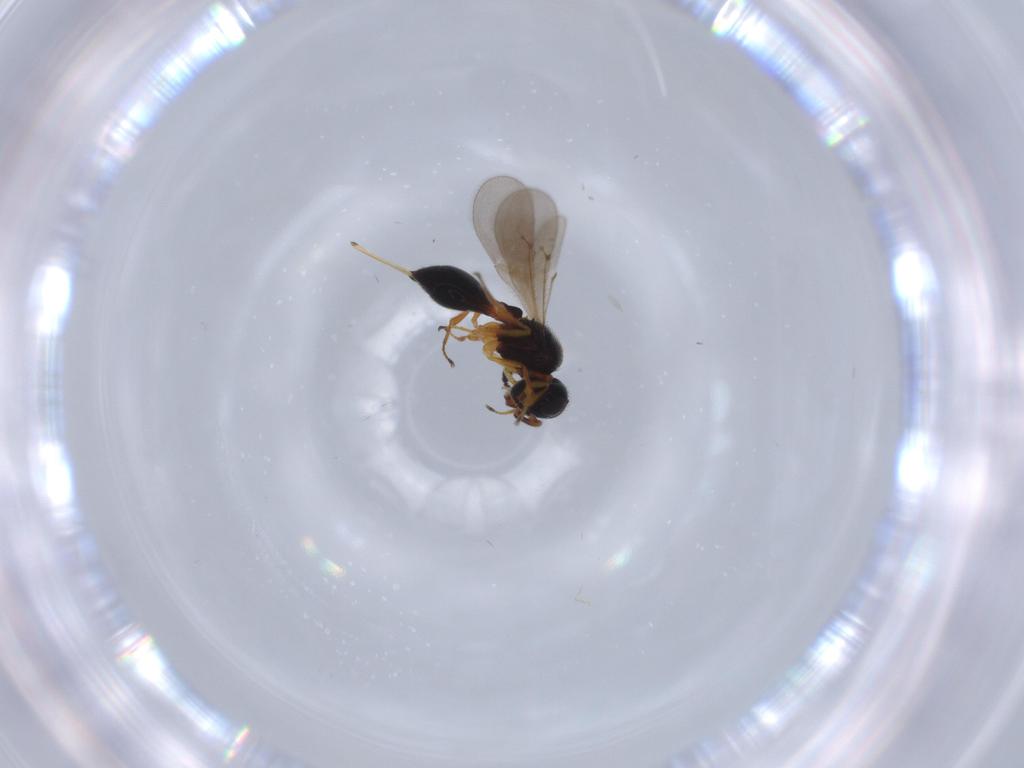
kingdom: Animalia
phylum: Arthropoda
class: Insecta
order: Hymenoptera
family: Scelionidae
